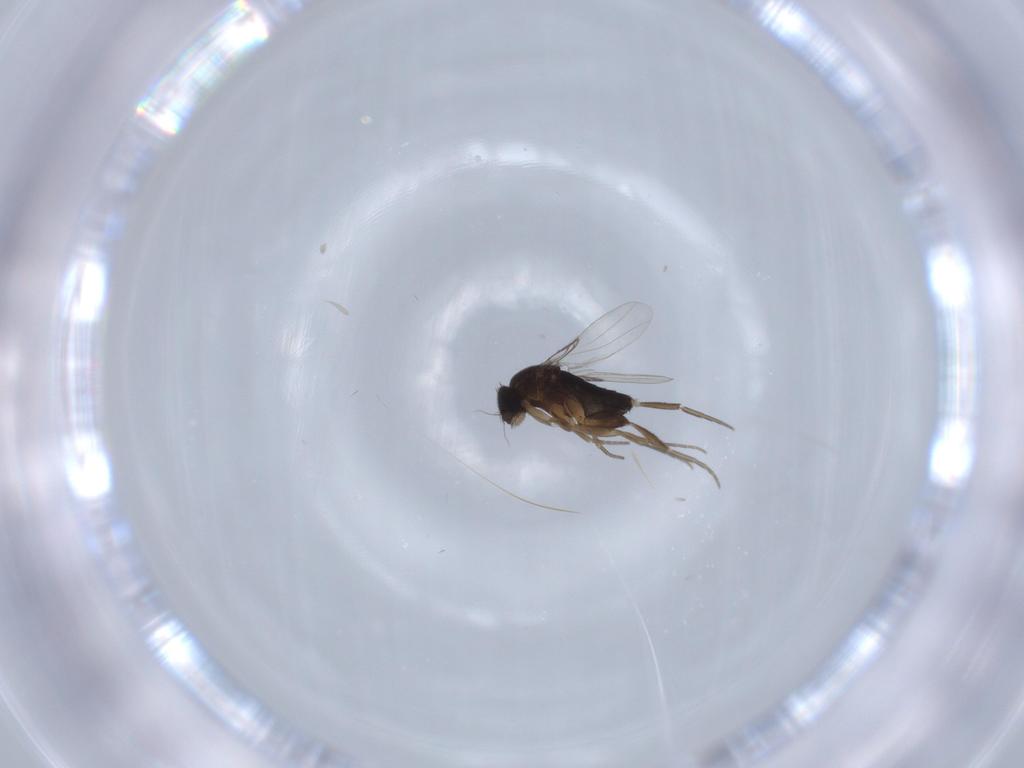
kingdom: Animalia
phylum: Arthropoda
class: Insecta
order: Diptera
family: Phoridae
